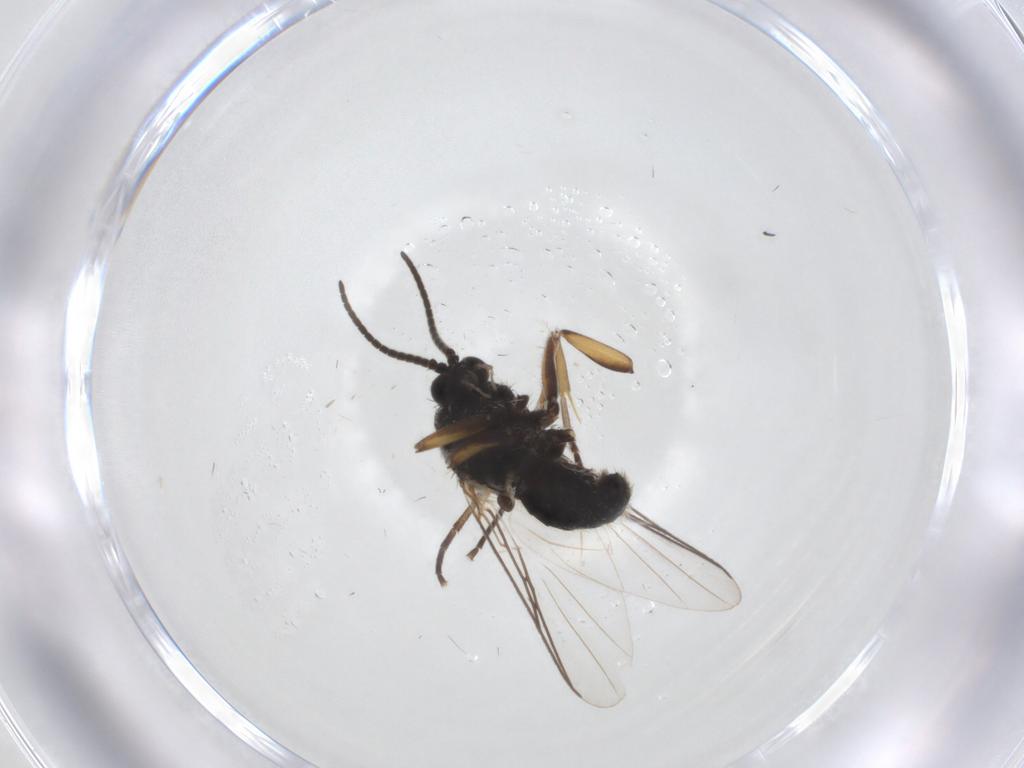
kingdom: Animalia
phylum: Arthropoda
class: Insecta
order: Diptera
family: Mycetophilidae
